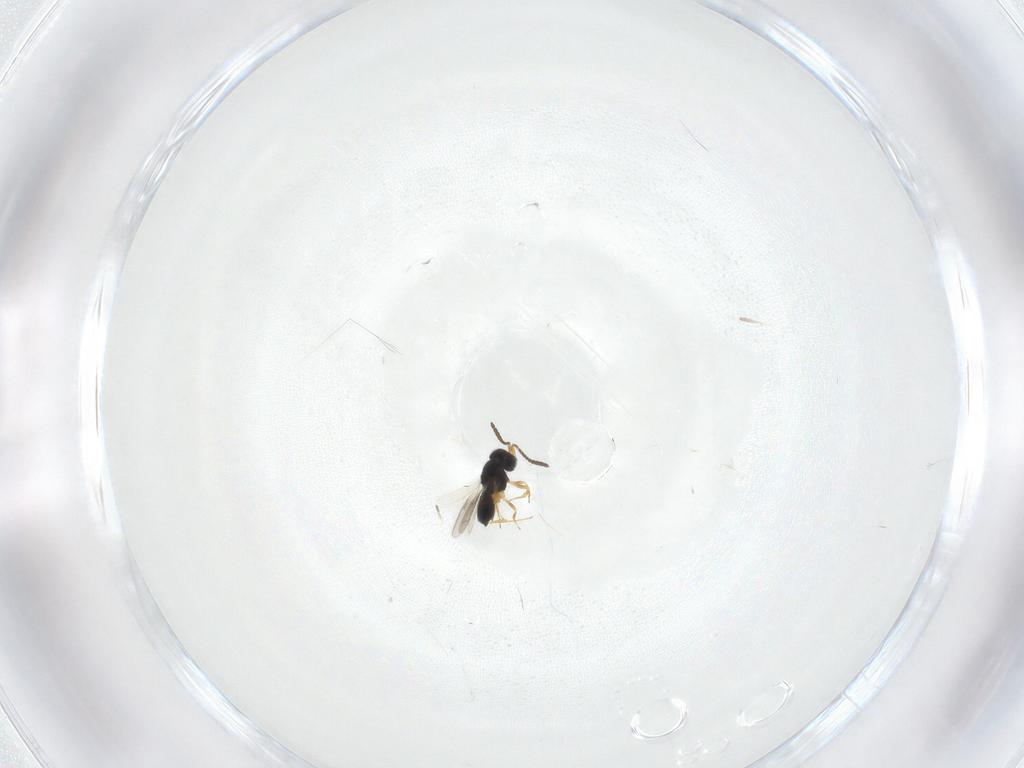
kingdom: Animalia
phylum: Arthropoda
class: Insecta
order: Hymenoptera
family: Scelionidae
